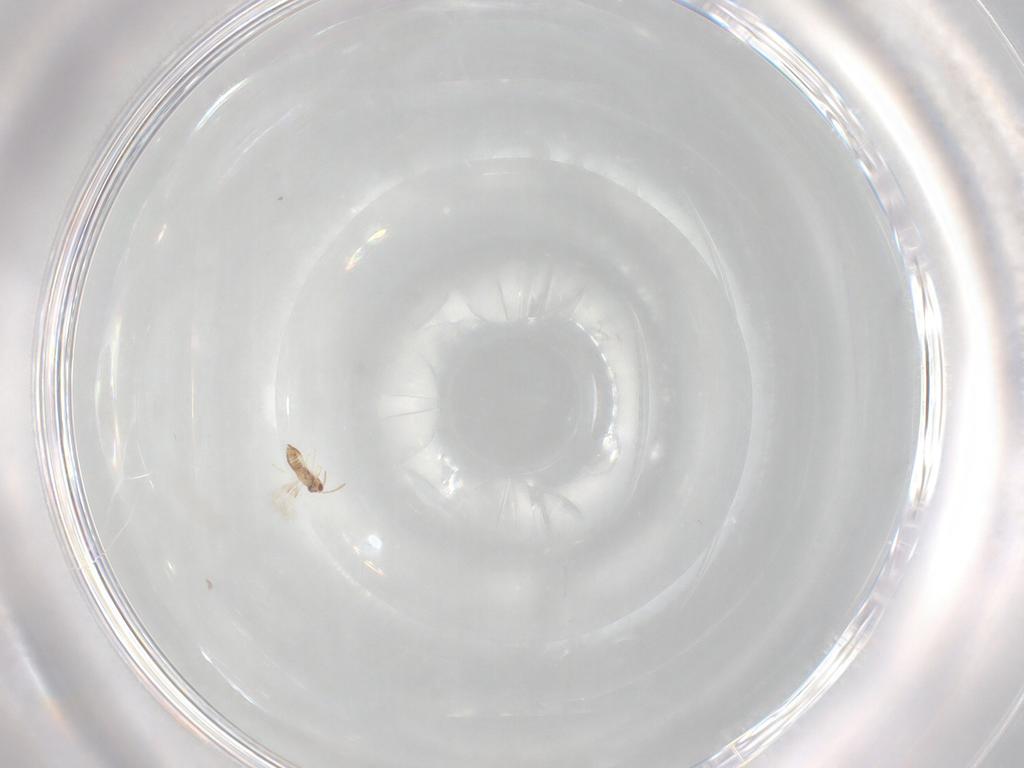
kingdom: Animalia
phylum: Arthropoda
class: Insecta
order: Hymenoptera
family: Aphelinidae
